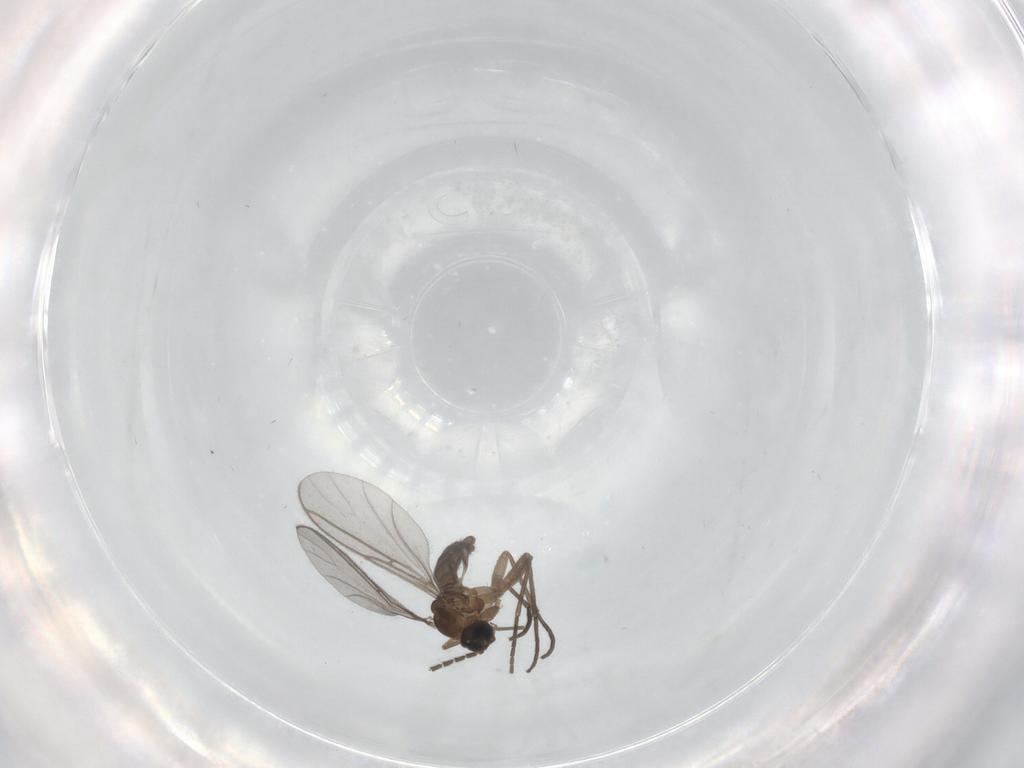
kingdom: Animalia
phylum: Arthropoda
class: Insecta
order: Diptera
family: Sciaridae
